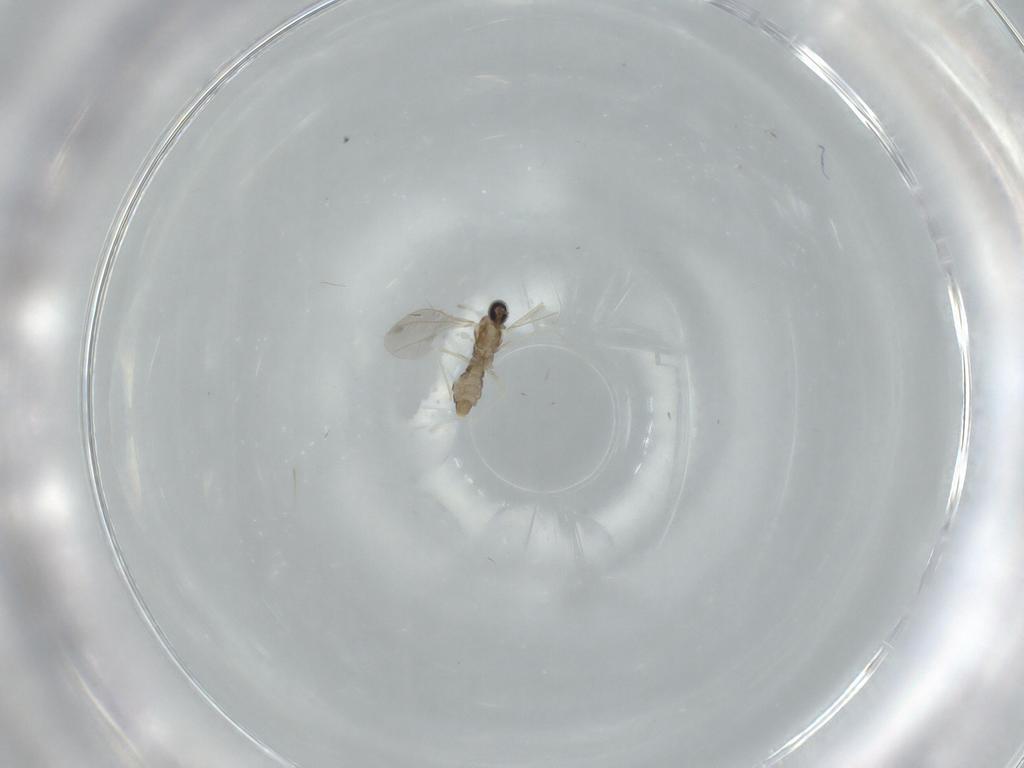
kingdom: Animalia
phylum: Arthropoda
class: Insecta
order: Diptera
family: Cecidomyiidae
